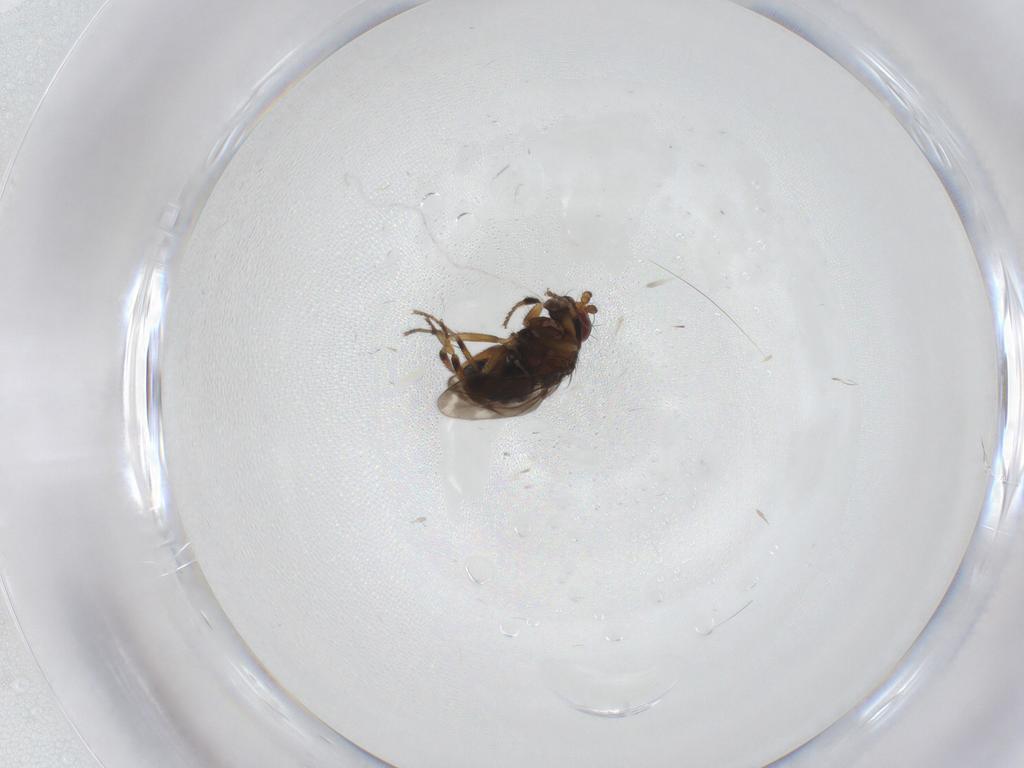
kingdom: Animalia
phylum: Arthropoda
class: Insecta
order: Diptera
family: Sphaeroceridae
